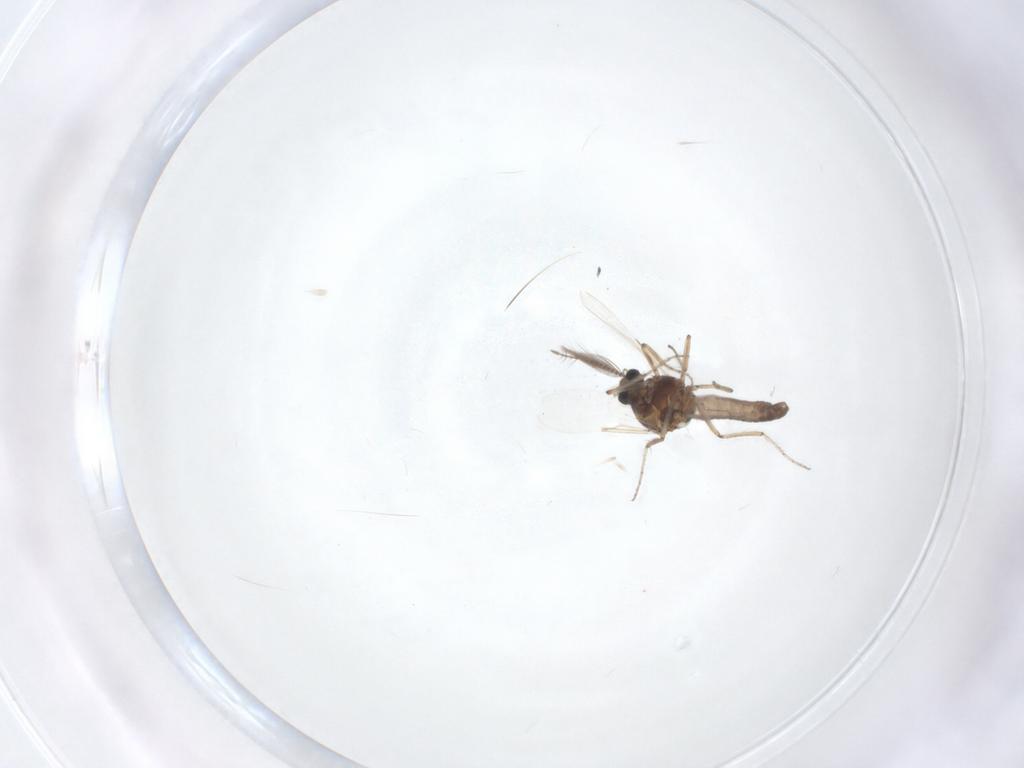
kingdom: Animalia
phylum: Arthropoda
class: Insecta
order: Diptera
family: Ceratopogonidae
